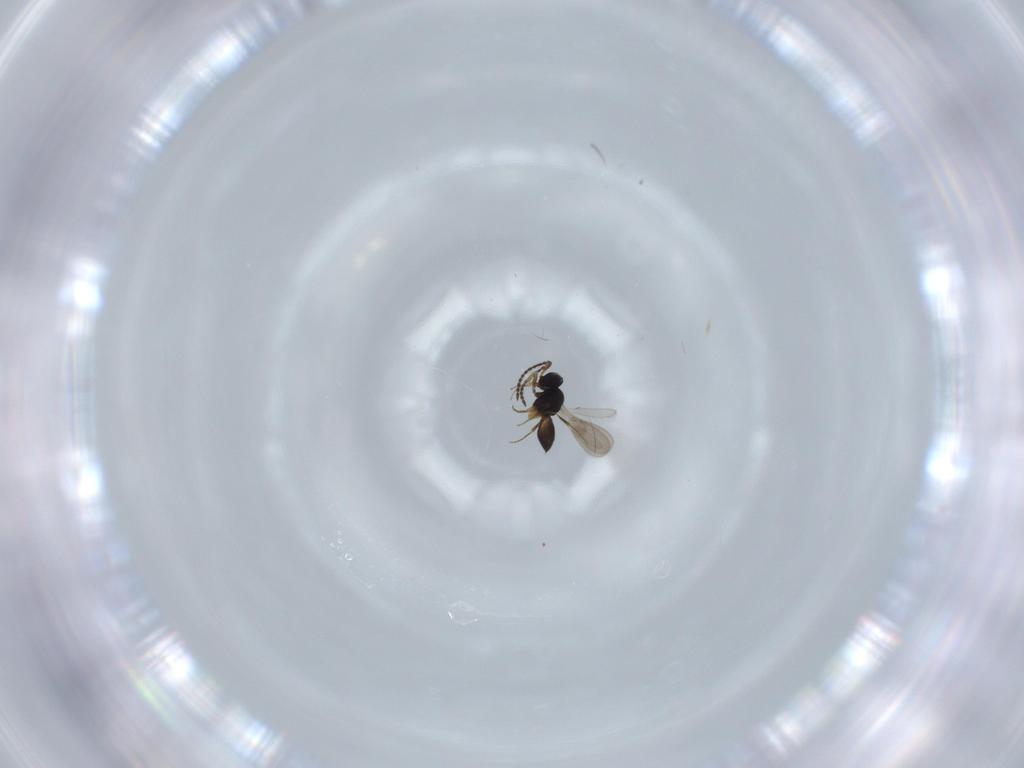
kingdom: Animalia
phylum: Arthropoda
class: Insecta
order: Hymenoptera
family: Scelionidae
